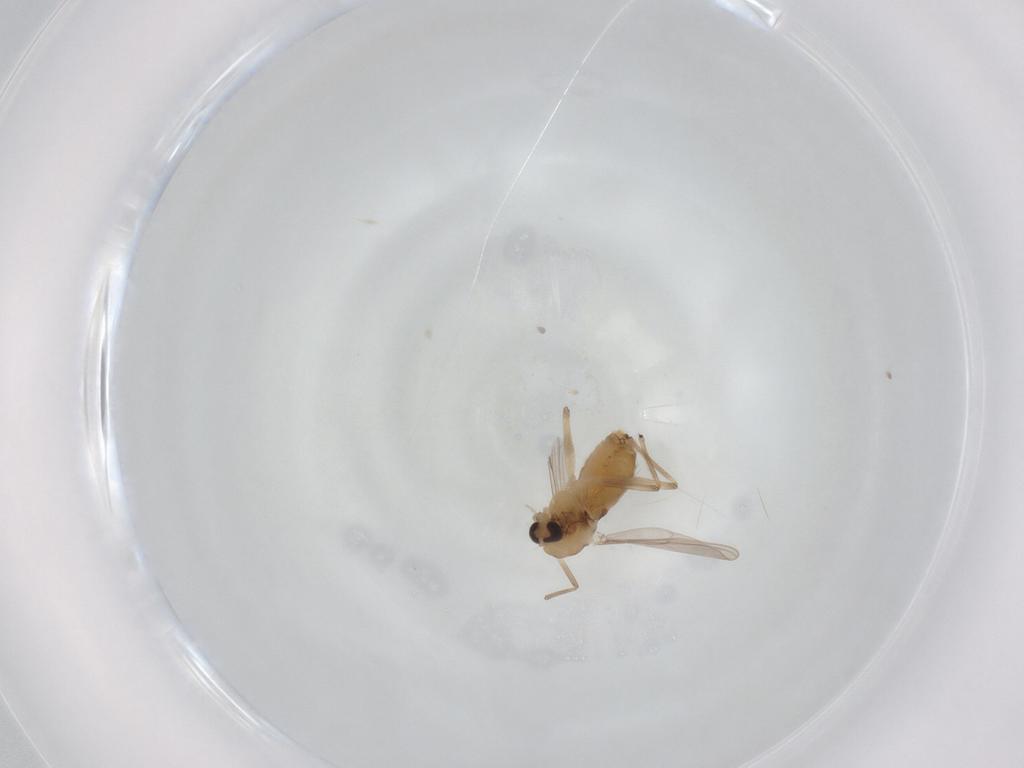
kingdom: Animalia
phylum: Arthropoda
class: Insecta
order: Diptera
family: Chironomidae
